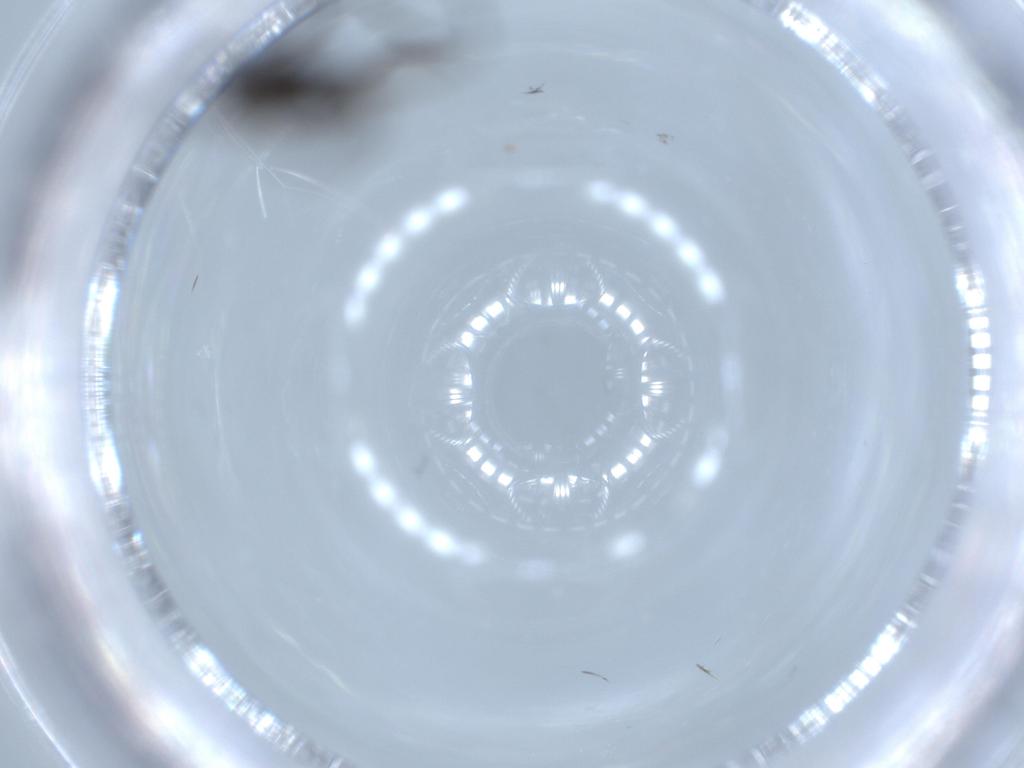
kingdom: Animalia
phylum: Arthropoda
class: Insecta
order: Diptera
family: Sciaridae
